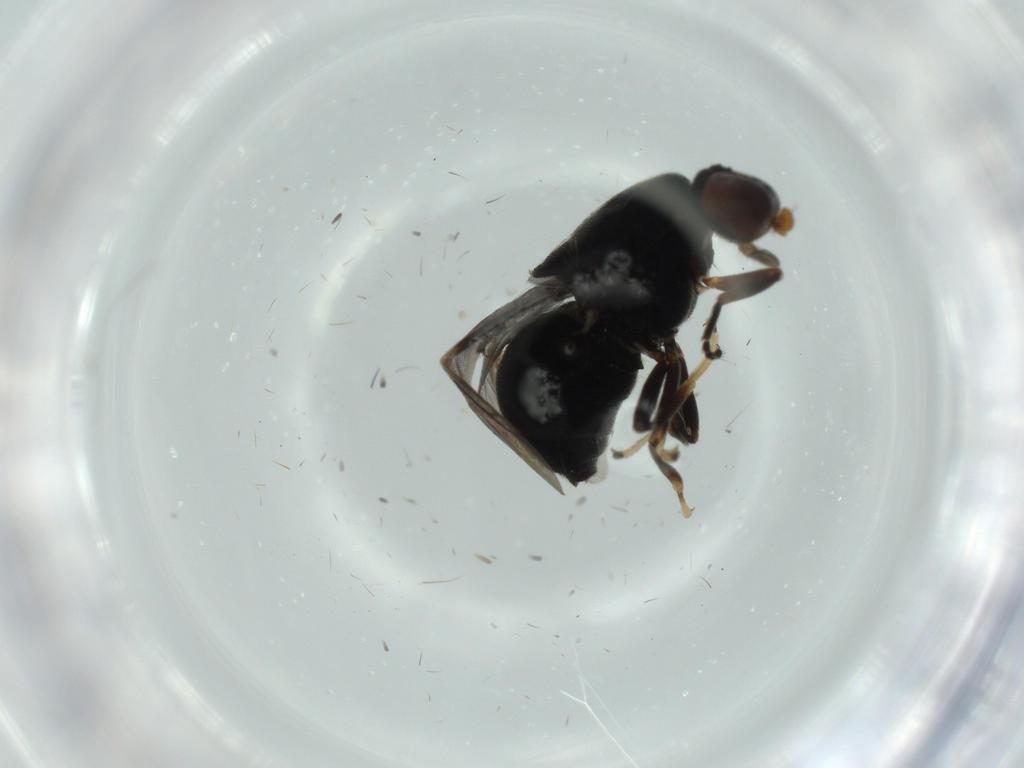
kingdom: Animalia
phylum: Arthropoda
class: Insecta
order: Diptera
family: Stratiomyidae
